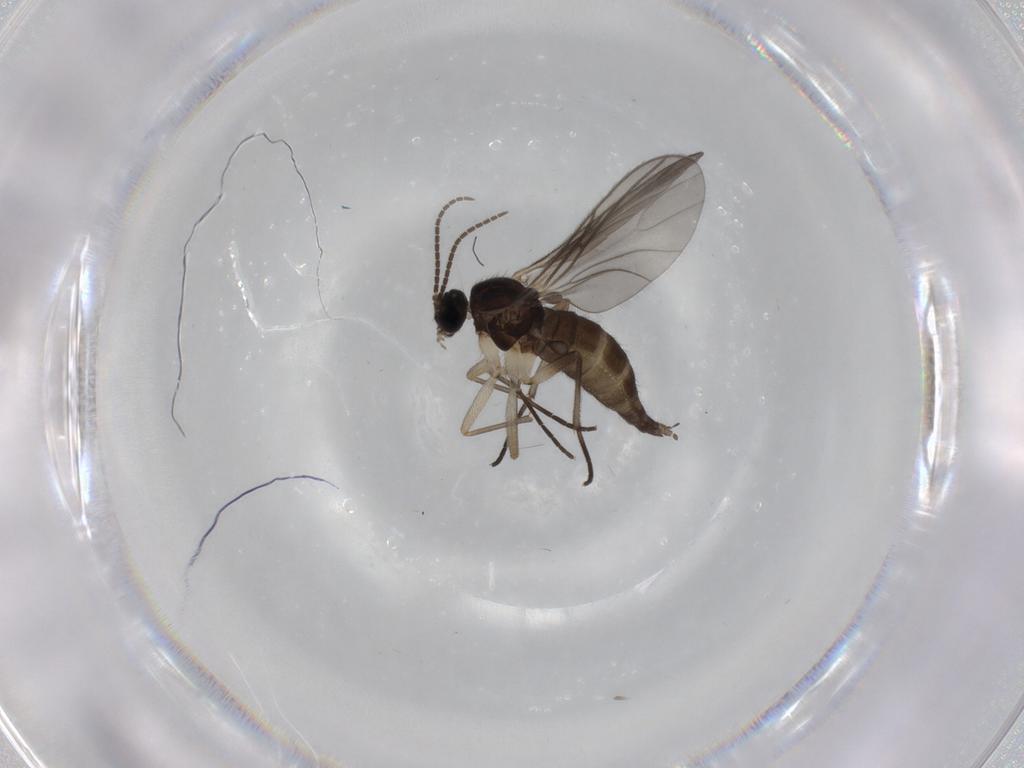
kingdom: Animalia
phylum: Arthropoda
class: Insecta
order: Diptera
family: Sciaridae
